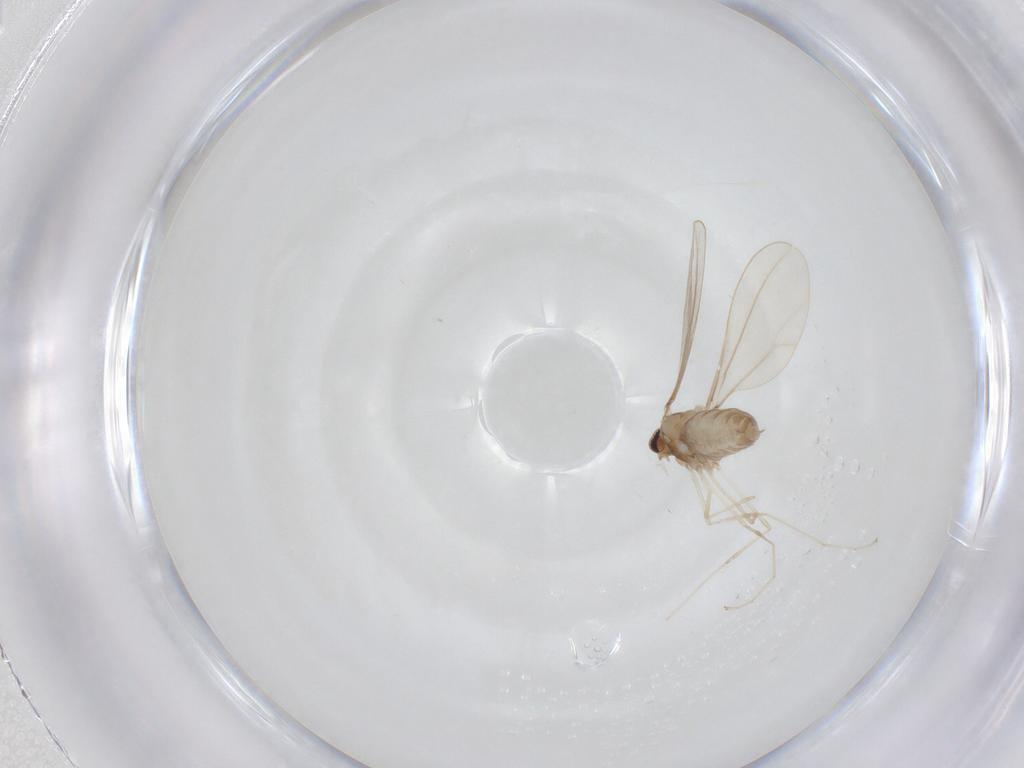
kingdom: Animalia
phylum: Arthropoda
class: Insecta
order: Diptera
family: Cecidomyiidae
